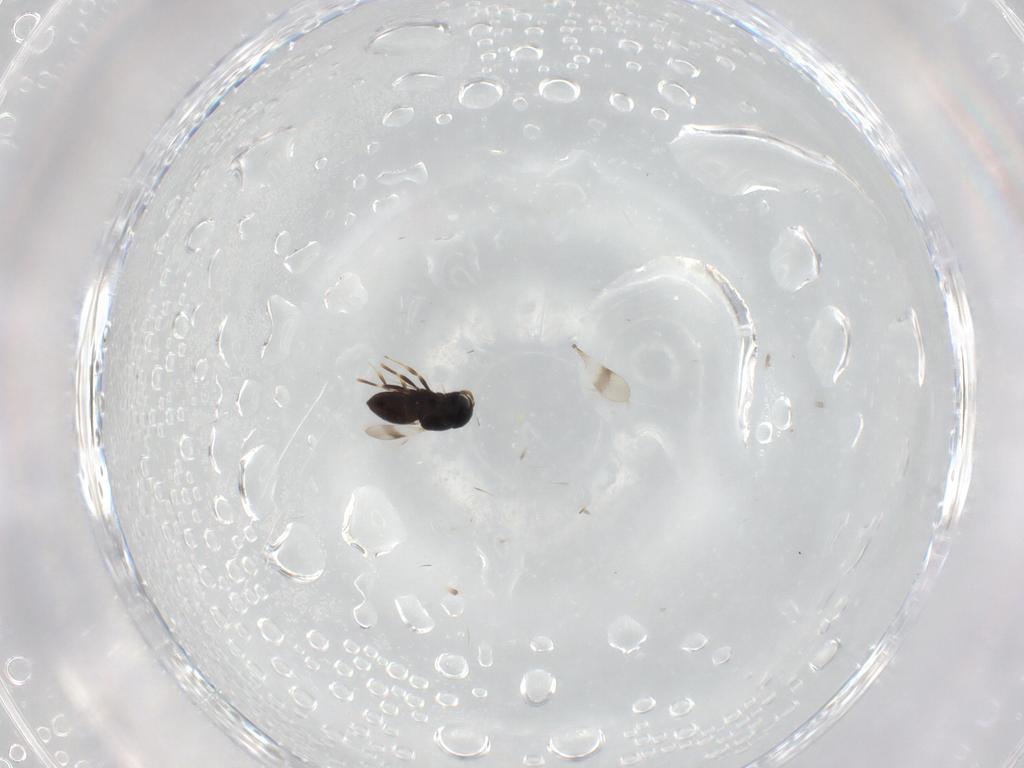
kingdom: Animalia
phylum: Arthropoda
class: Insecta
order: Hymenoptera
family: Scelionidae
